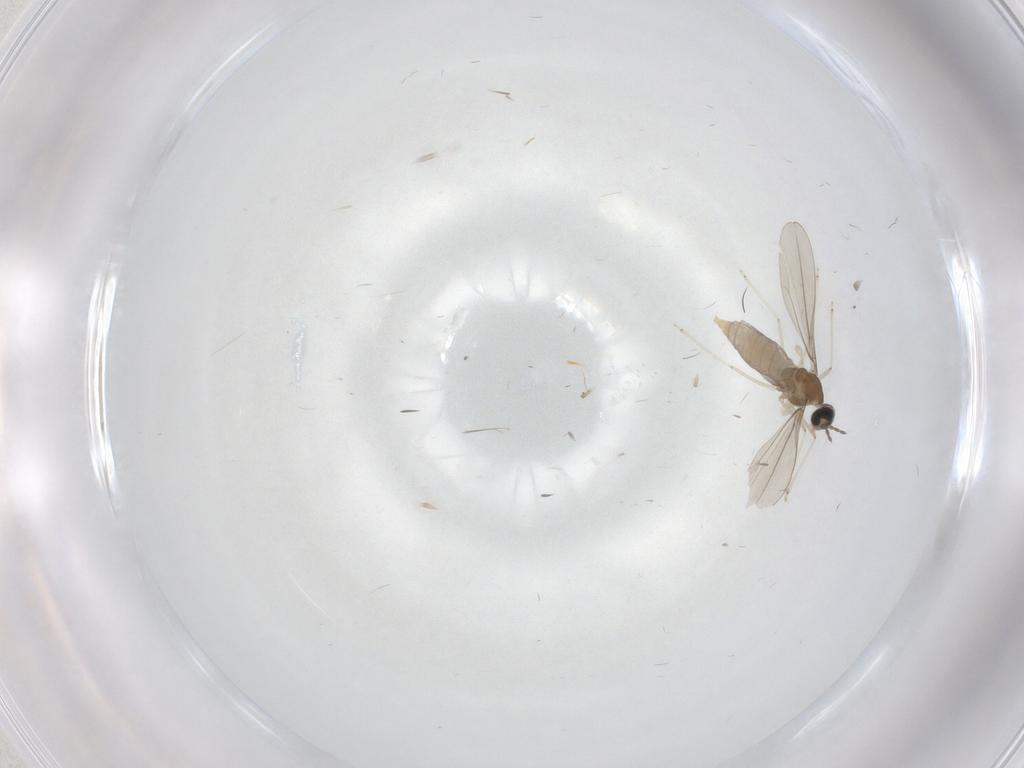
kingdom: Animalia
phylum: Arthropoda
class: Insecta
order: Diptera
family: Cecidomyiidae
